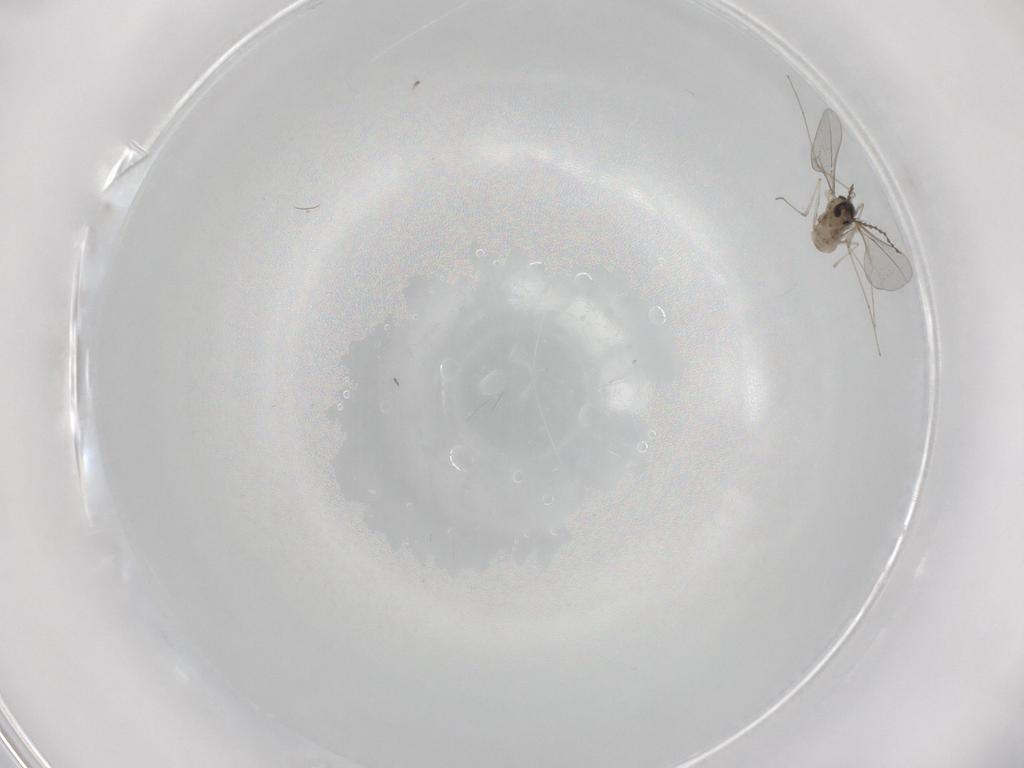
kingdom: Animalia
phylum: Arthropoda
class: Insecta
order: Diptera
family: Cecidomyiidae
